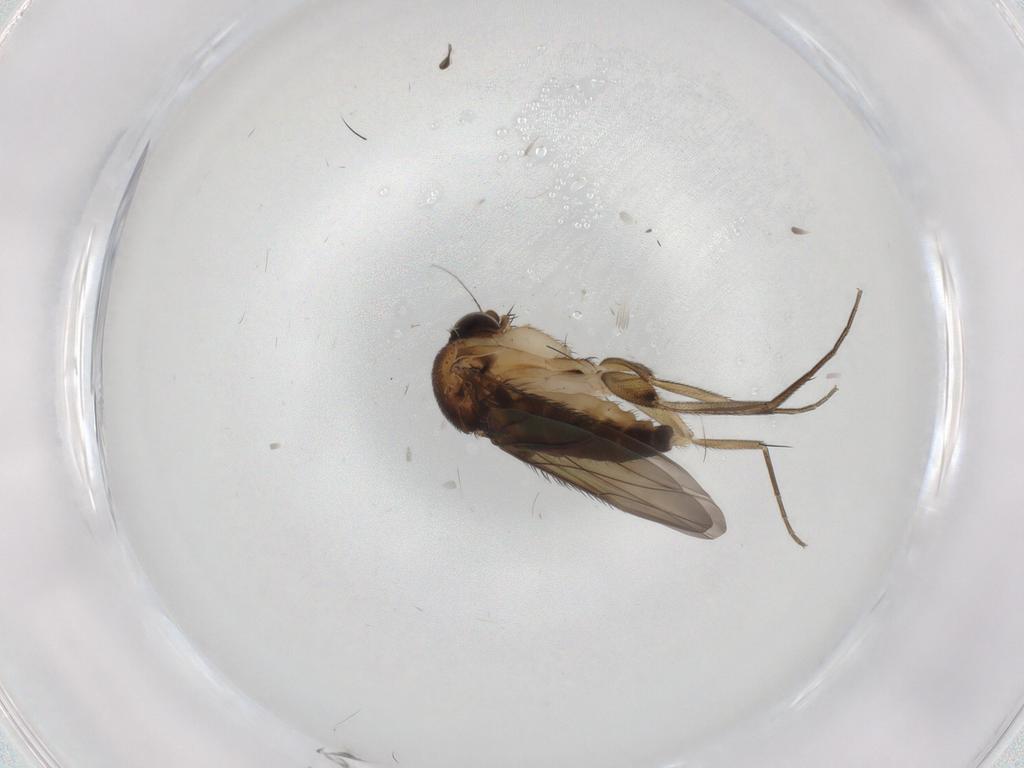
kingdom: Animalia
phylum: Arthropoda
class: Insecta
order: Diptera
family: Phoridae
